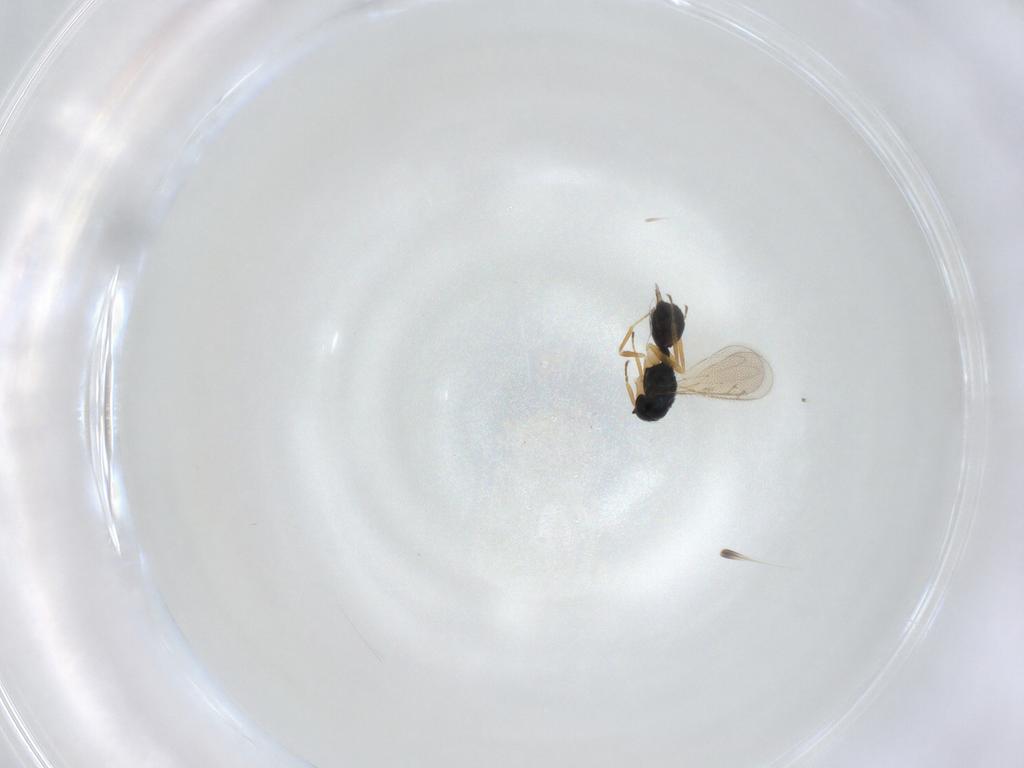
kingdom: Animalia
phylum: Arthropoda
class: Insecta
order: Hymenoptera
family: Eulophidae
